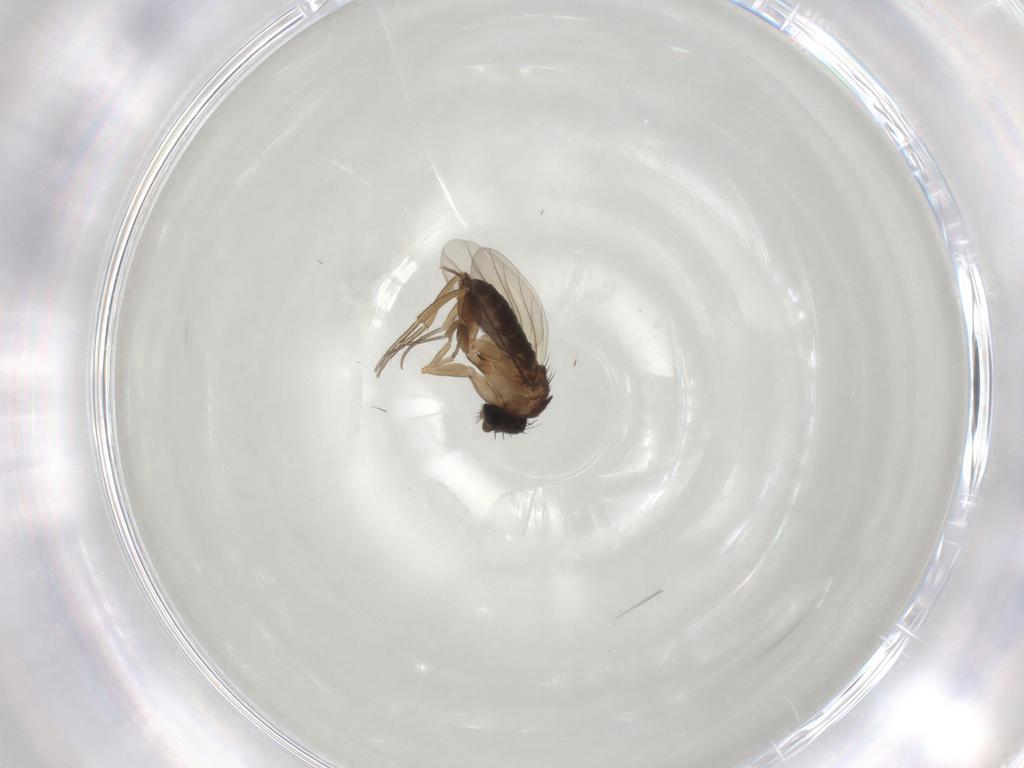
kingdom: Animalia
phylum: Arthropoda
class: Insecta
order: Diptera
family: Phoridae
